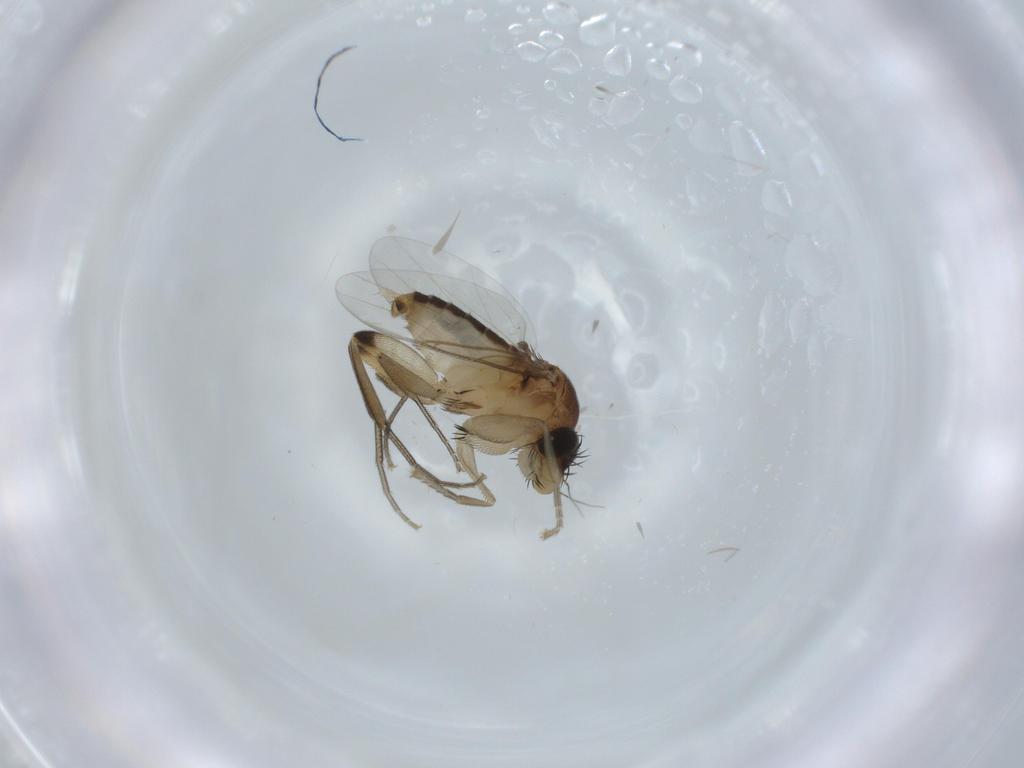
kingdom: Animalia
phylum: Arthropoda
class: Insecta
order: Diptera
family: Phoridae
